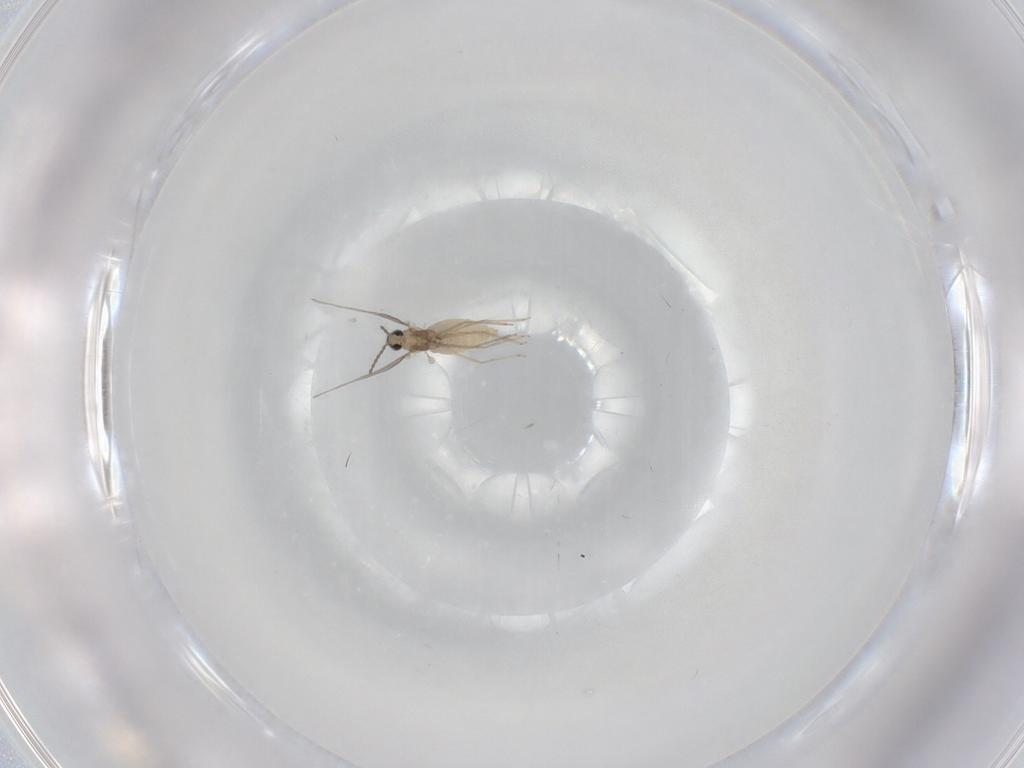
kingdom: Animalia
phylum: Arthropoda
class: Insecta
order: Diptera
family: Cecidomyiidae
